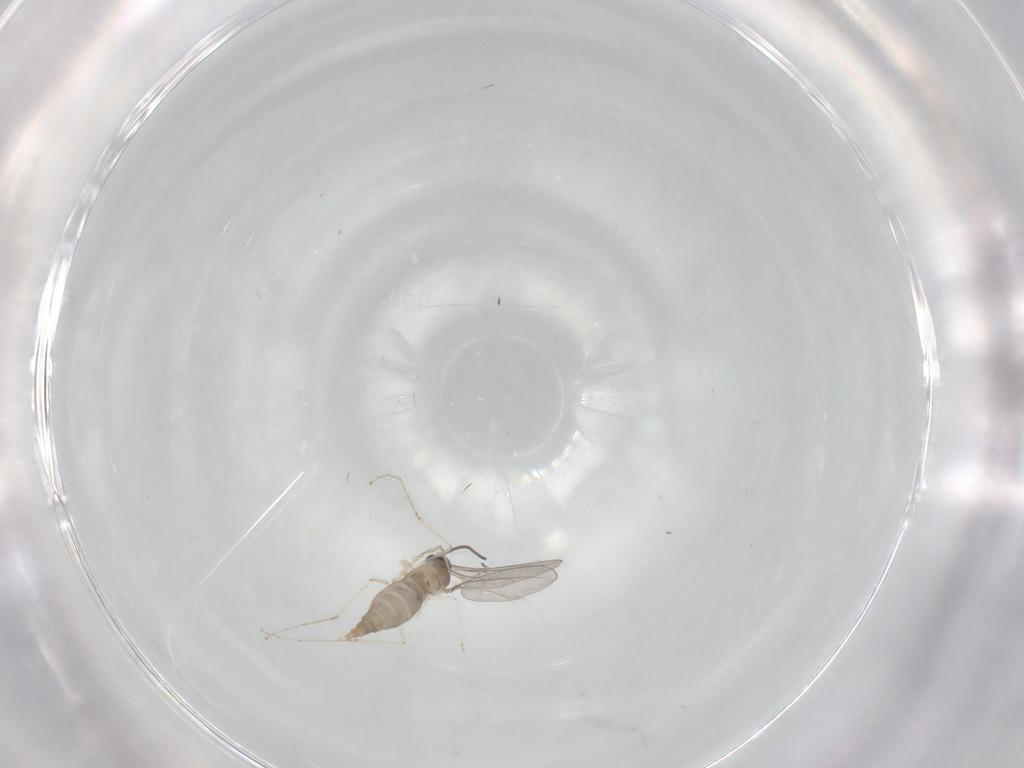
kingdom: Animalia
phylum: Arthropoda
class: Insecta
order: Diptera
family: Cecidomyiidae
